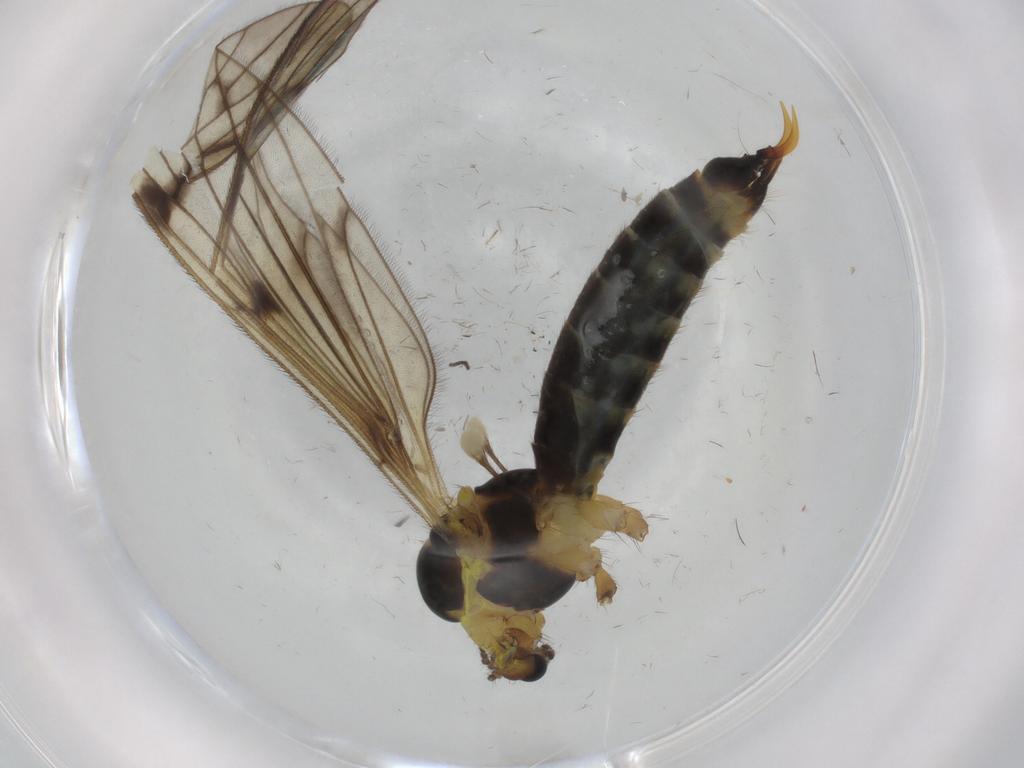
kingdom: Animalia
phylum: Arthropoda
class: Insecta
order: Diptera
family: Limoniidae
